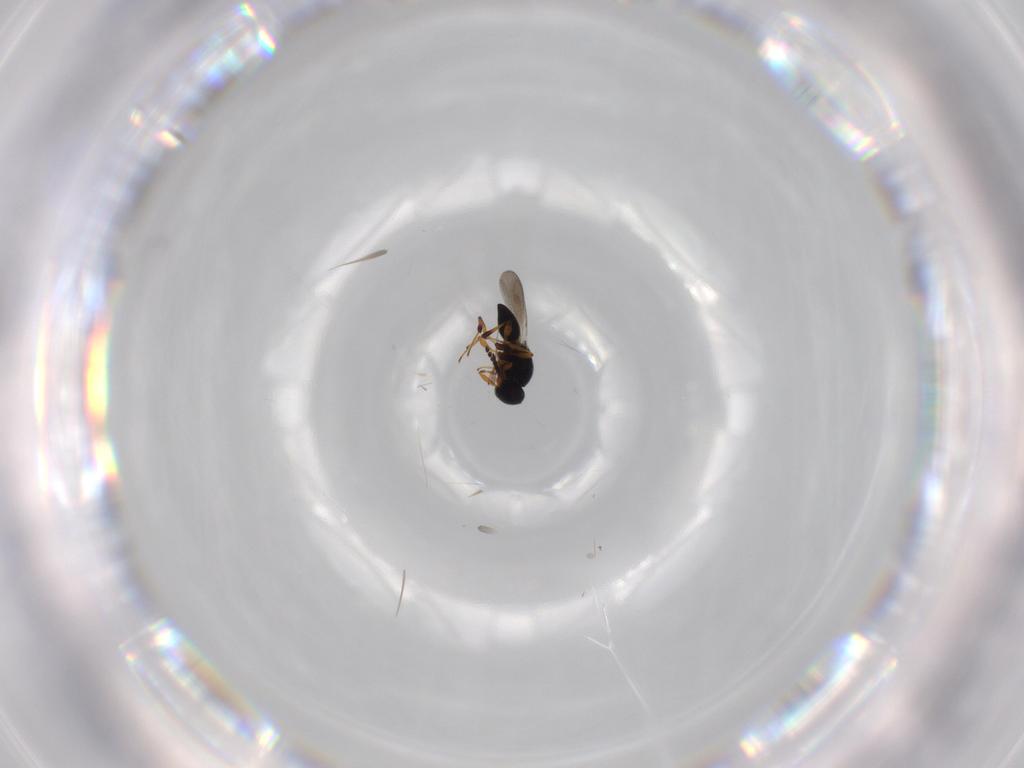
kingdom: Animalia
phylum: Arthropoda
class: Insecta
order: Hymenoptera
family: Platygastridae
